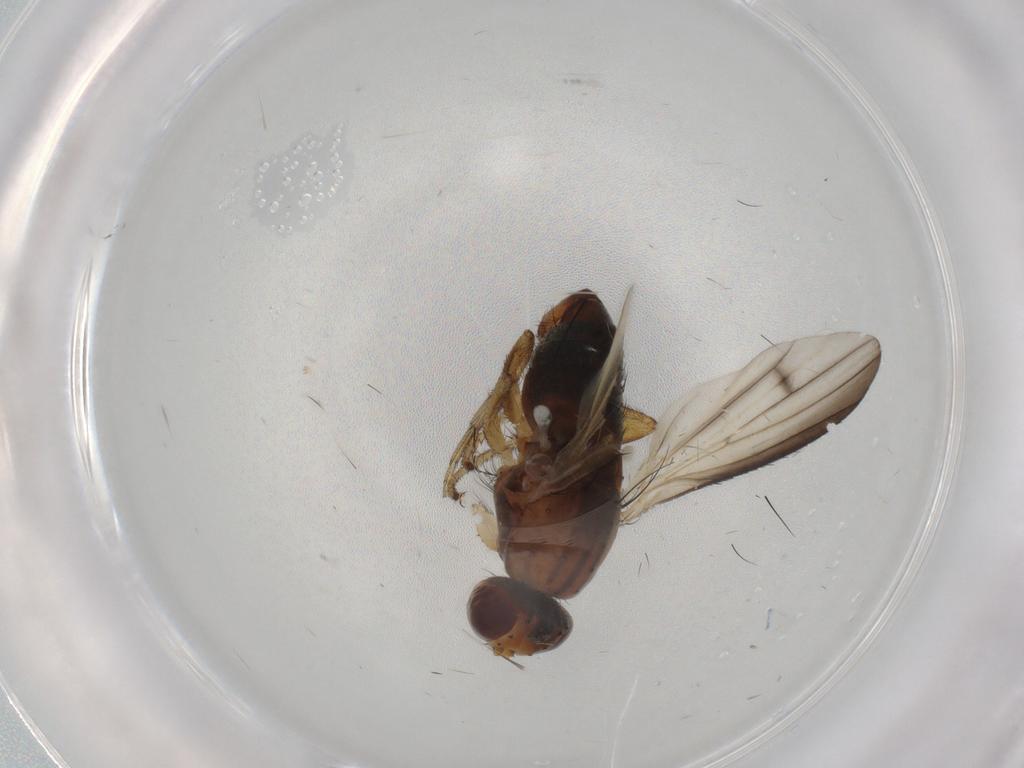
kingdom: Animalia
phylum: Arthropoda
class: Insecta
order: Diptera
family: Heleomyzidae
